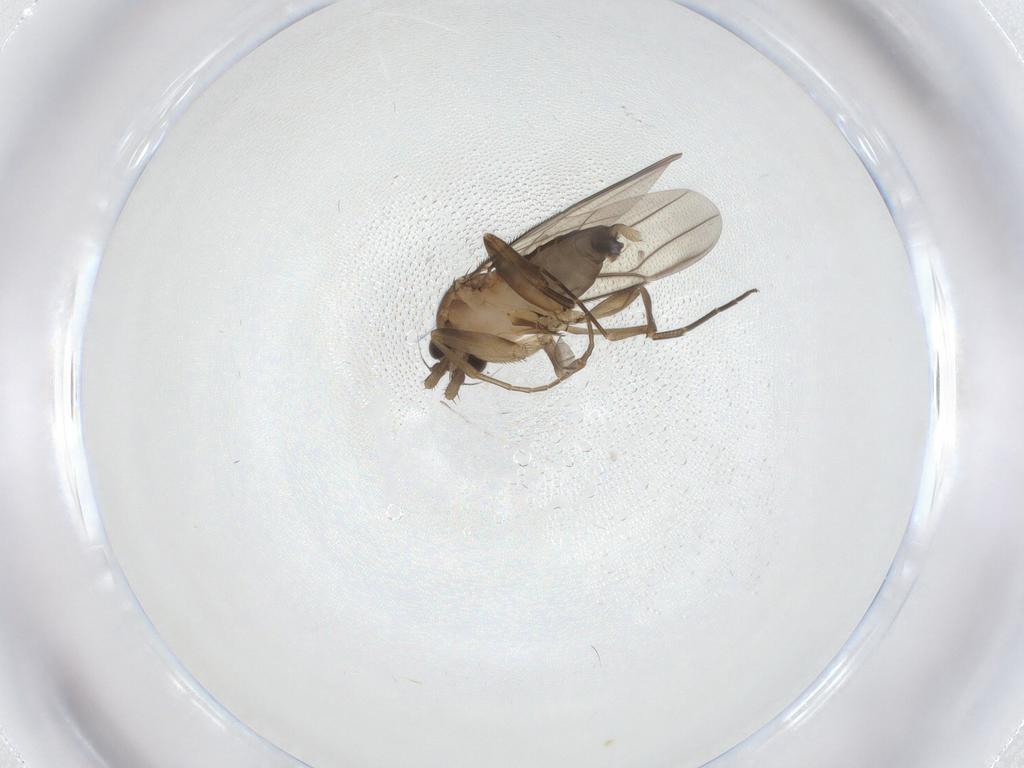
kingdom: Animalia
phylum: Arthropoda
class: Insecta
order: Diptera
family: Phoridae
